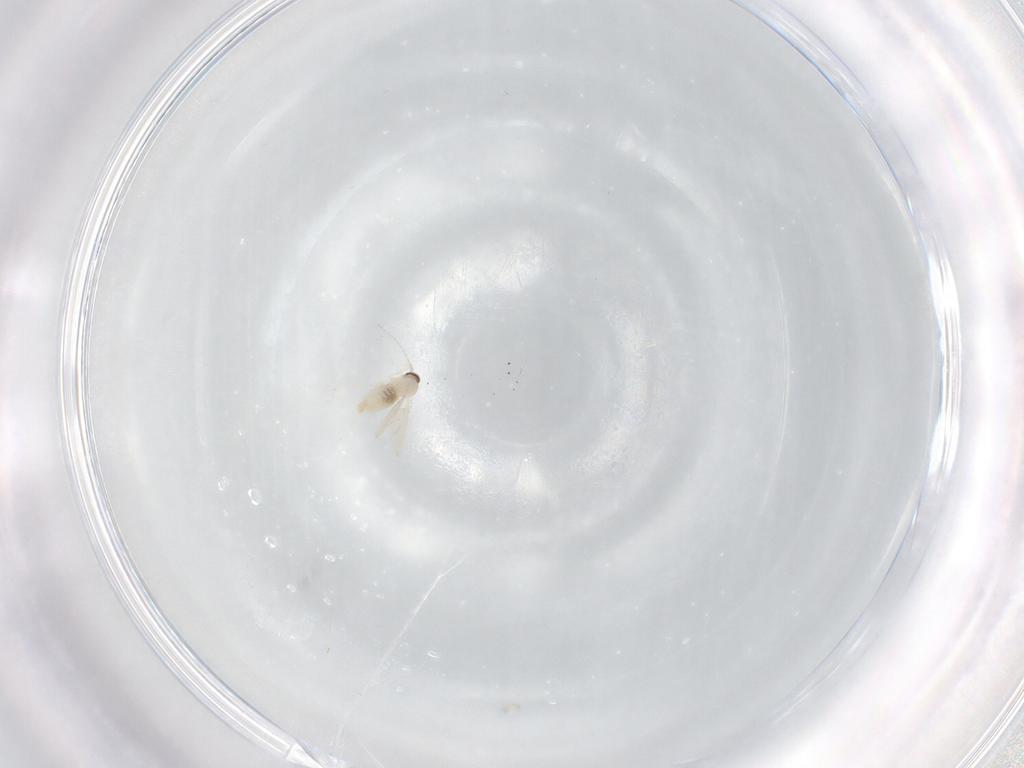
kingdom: Animalia
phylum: Arthropoda
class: Insecta
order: Diptera
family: Cecidomyiidae
